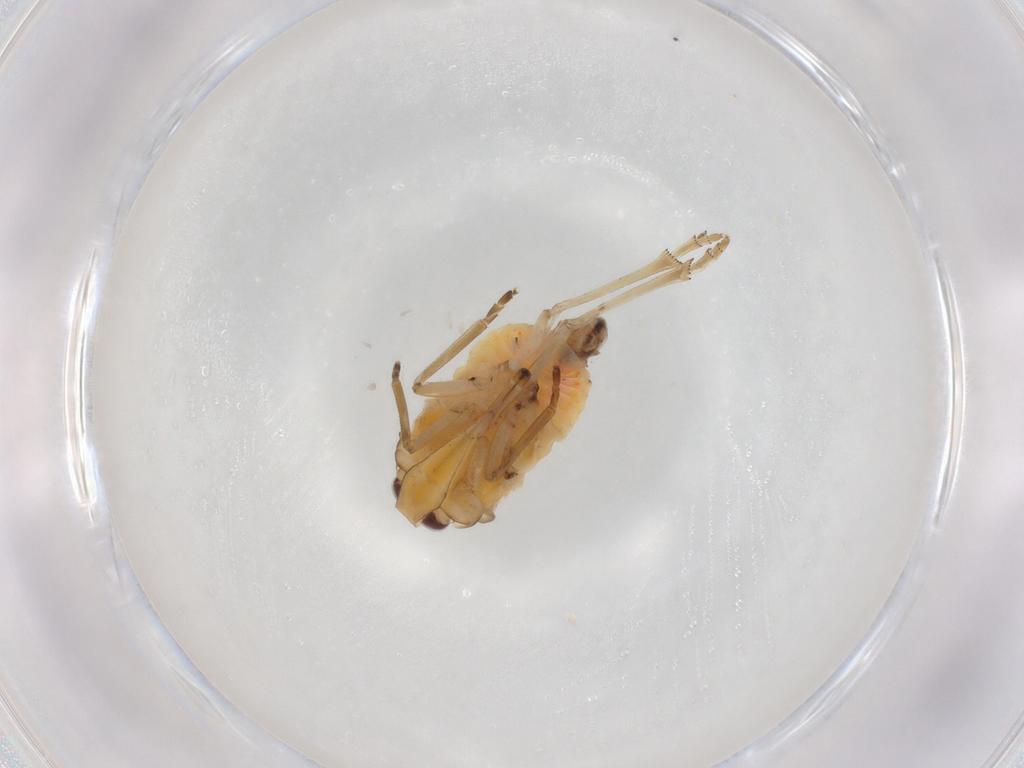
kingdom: Animalia
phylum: Arthropoda
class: Insecta
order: Hemiptera
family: Derbidae
